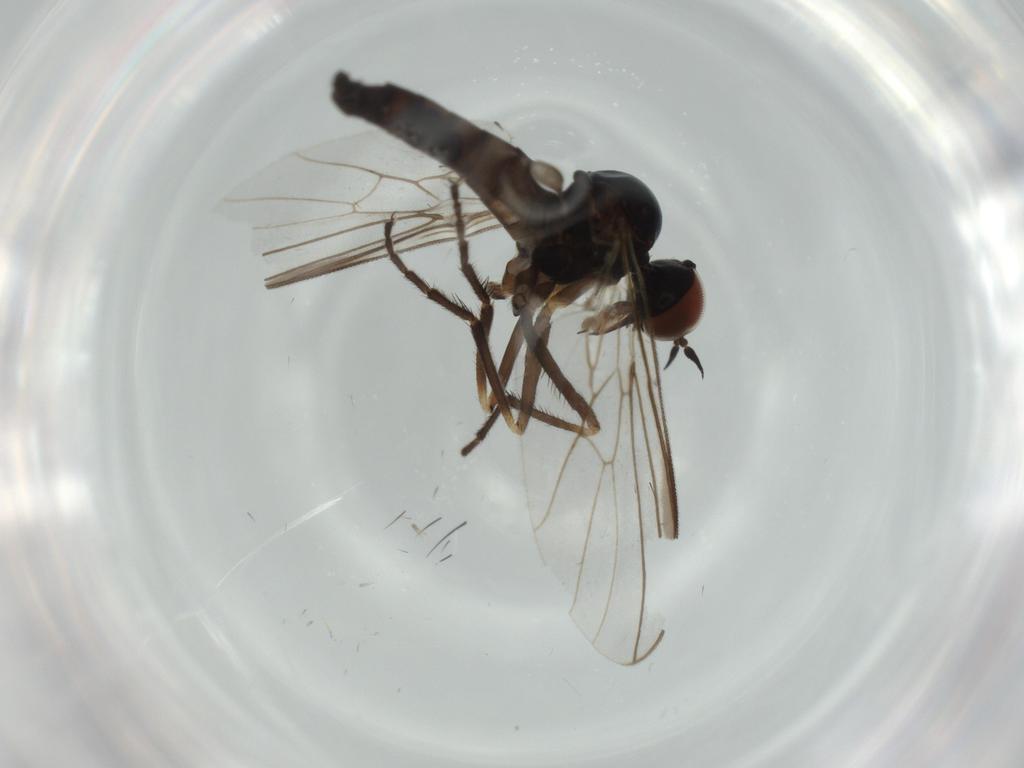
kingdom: Animalia
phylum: Arthropoda
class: Insecta
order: Diptera
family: Empididae
